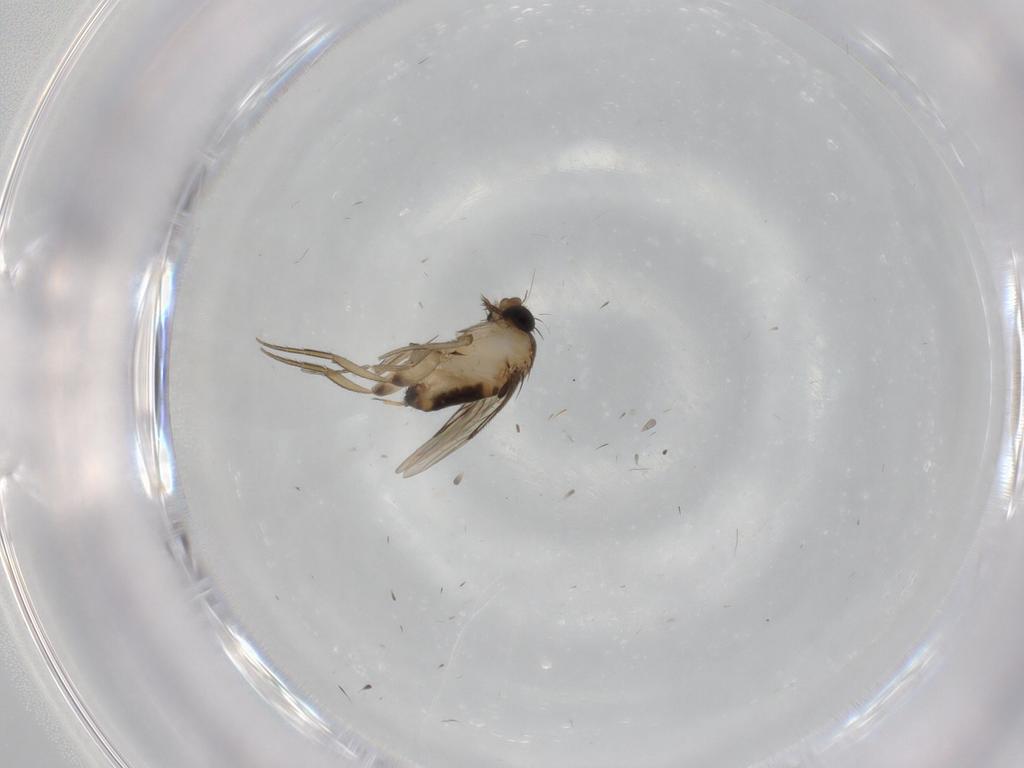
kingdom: Animalia
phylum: Arthropoda
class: Insecta
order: Diptera
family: Phoridae
